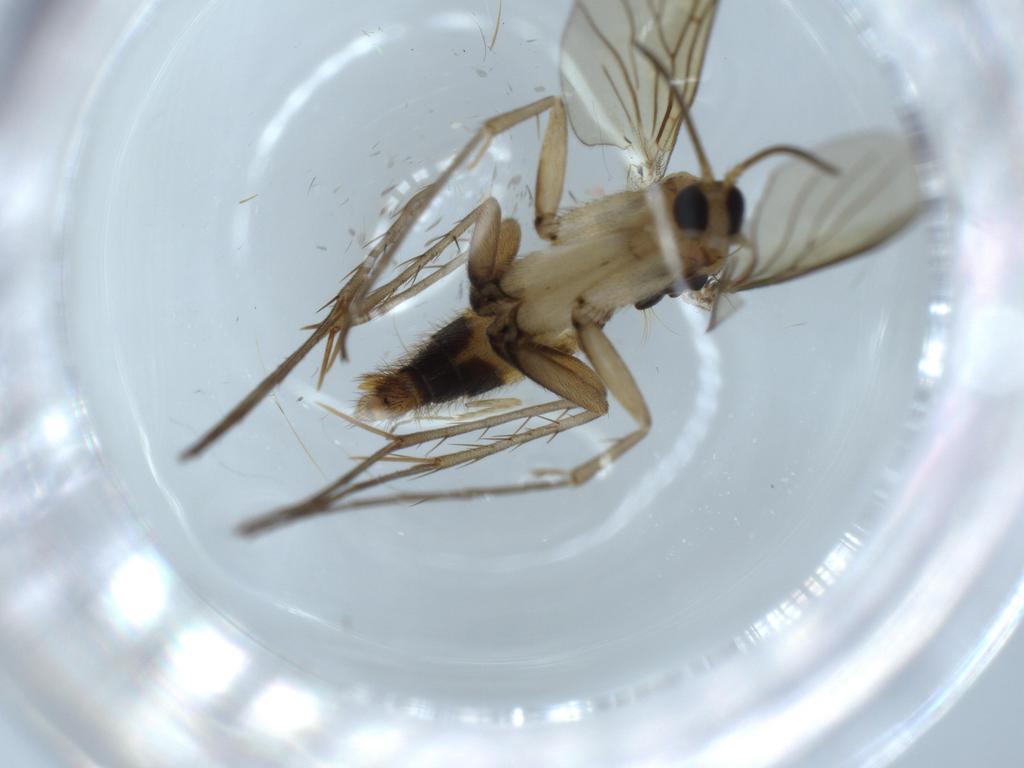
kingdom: Animalia
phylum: Arthropoda
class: Insecta
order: Diptera
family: Mycetophilidae
